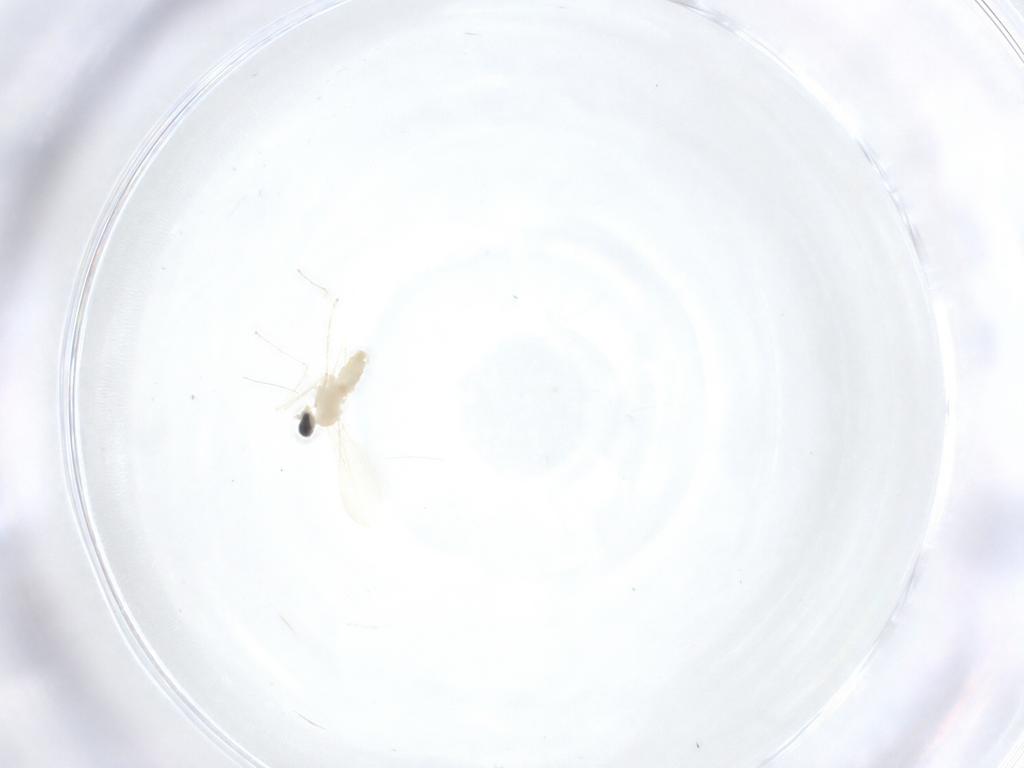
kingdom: Animalia
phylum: Arthropoda
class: Insecta
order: Diptera
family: Cecidomyiidae
